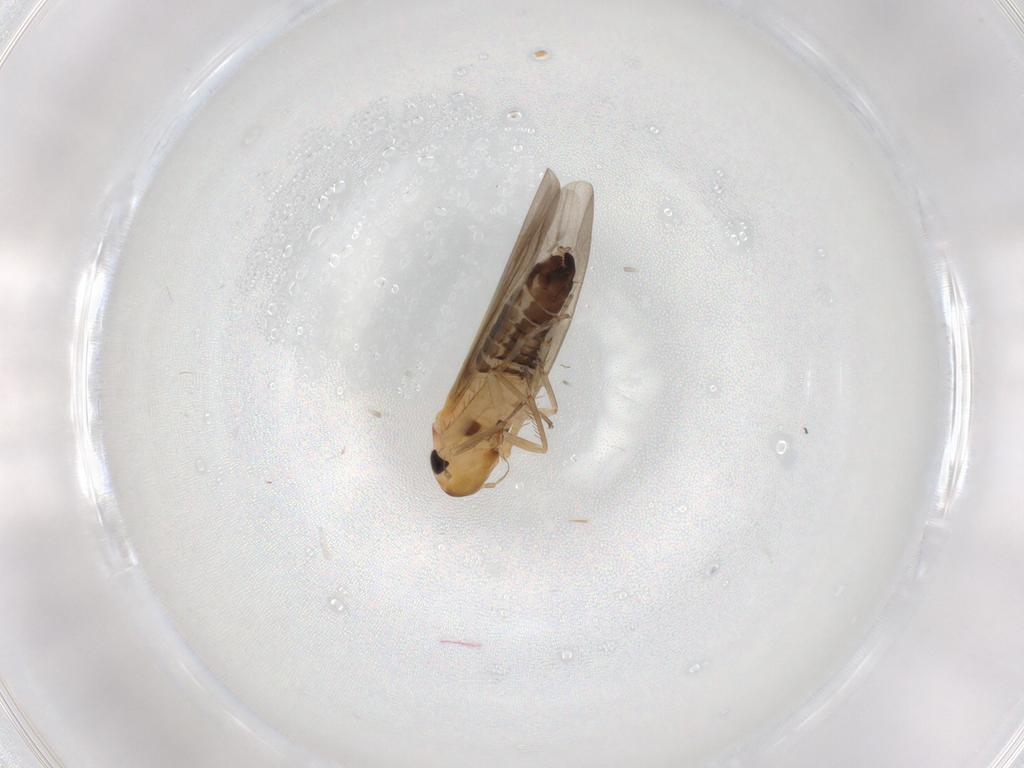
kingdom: Animalia
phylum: Arthropoda
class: Insecta
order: Hemiptera
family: Cicadellidae
